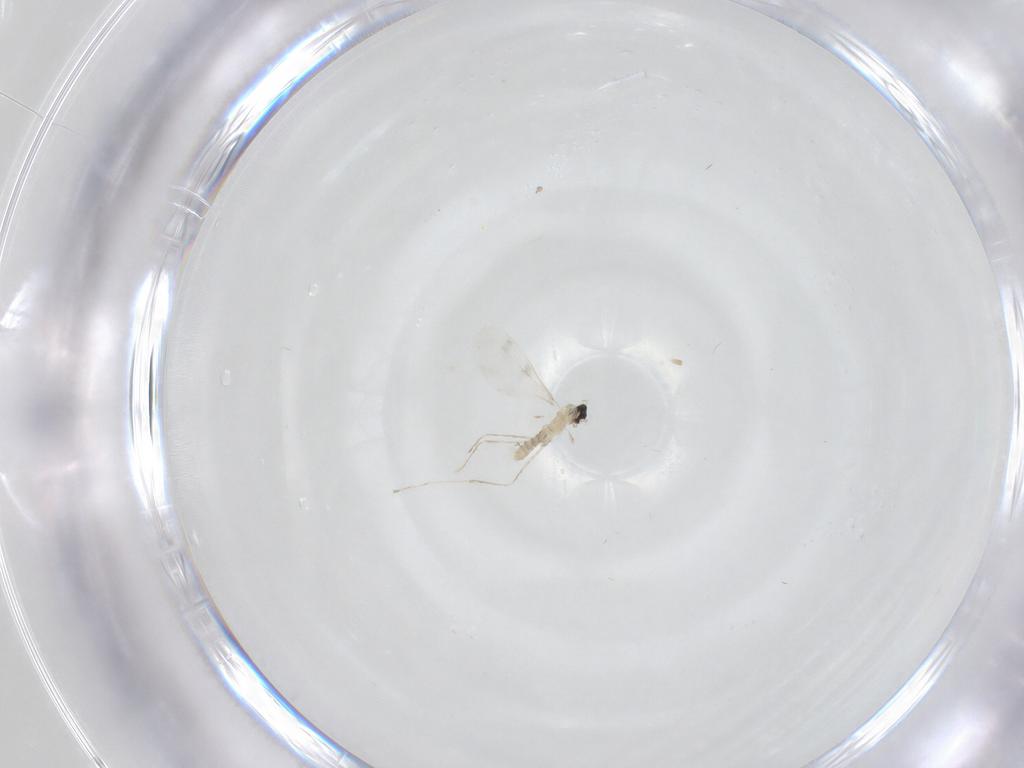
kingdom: Animalia
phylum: Arthropoda
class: Insecta
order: Diptera
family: Cecidomyiidae
